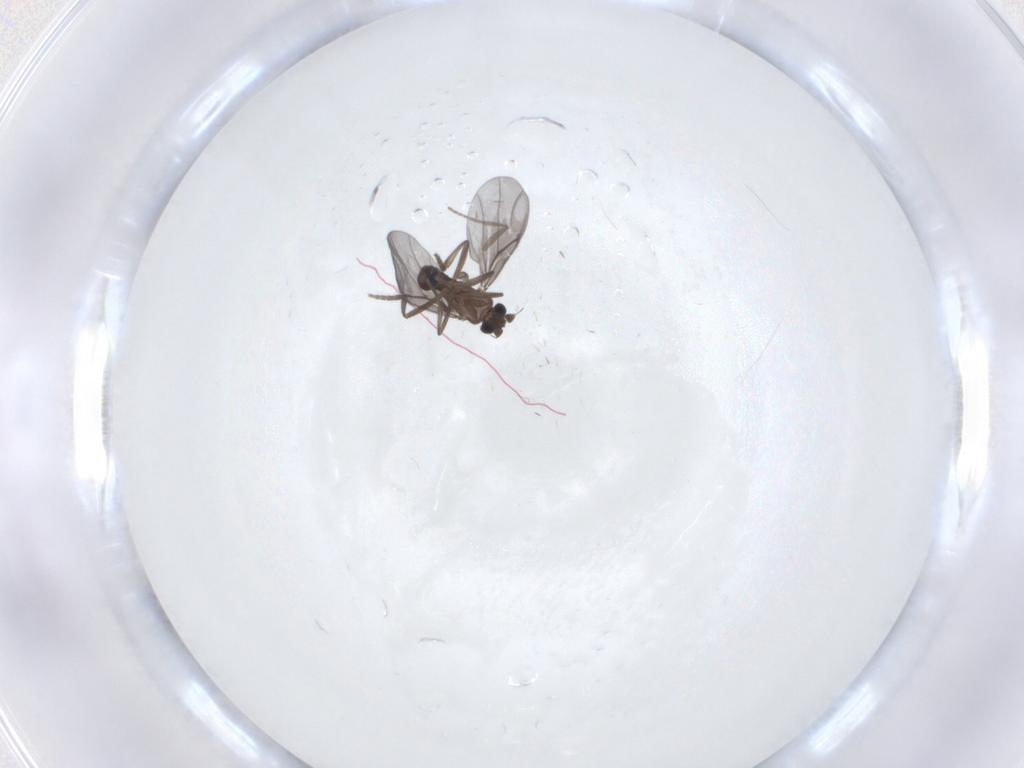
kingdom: Animalia
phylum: Arthropoda
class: Insecta
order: Diptera
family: Phoridae
